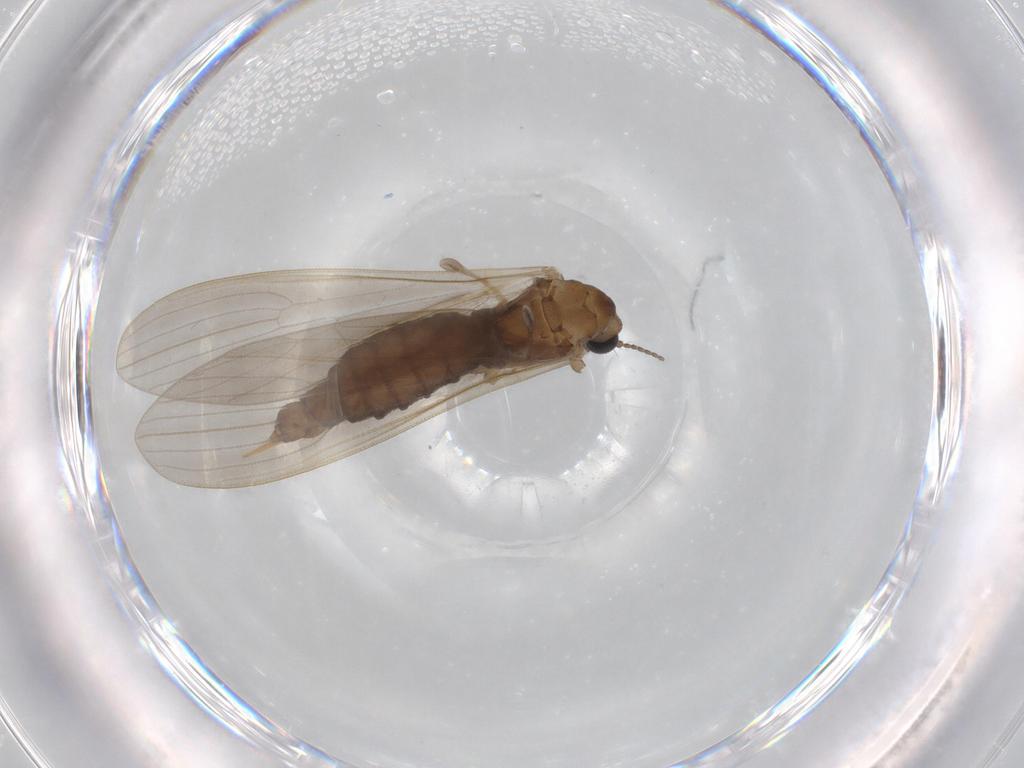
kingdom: Animalia
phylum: Arthropoda
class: Insecta
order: Diptera
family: Limoniidae
